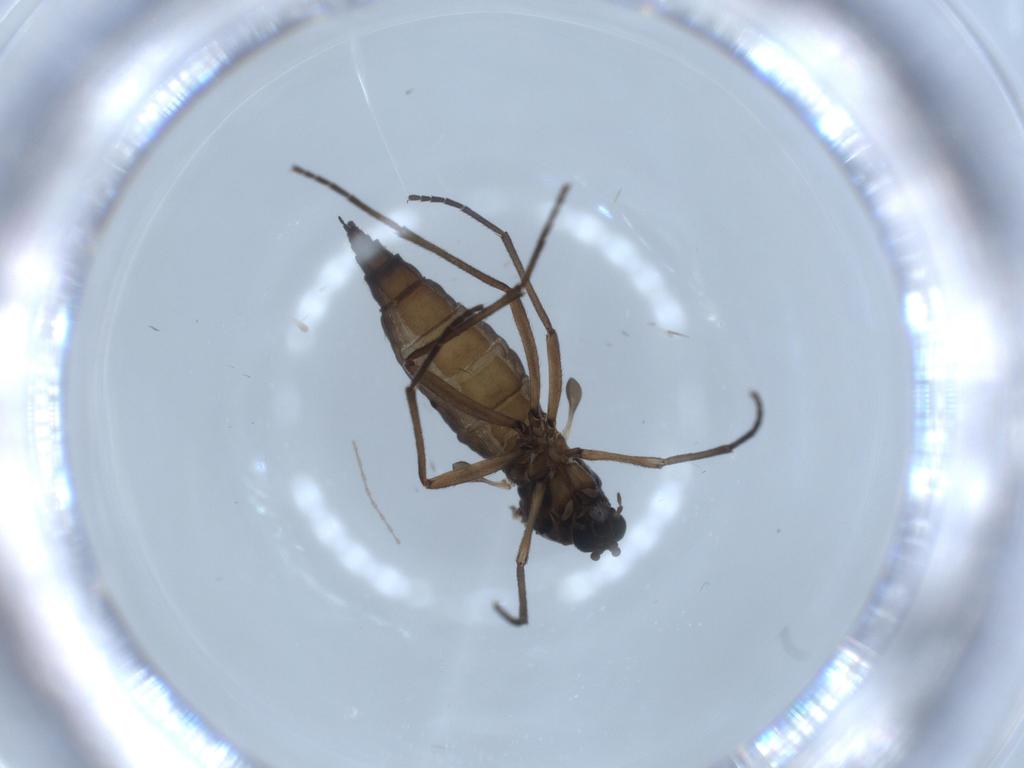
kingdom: Animalia
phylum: Arthropoda
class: Insecta
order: Diptera
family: Sciaridae
